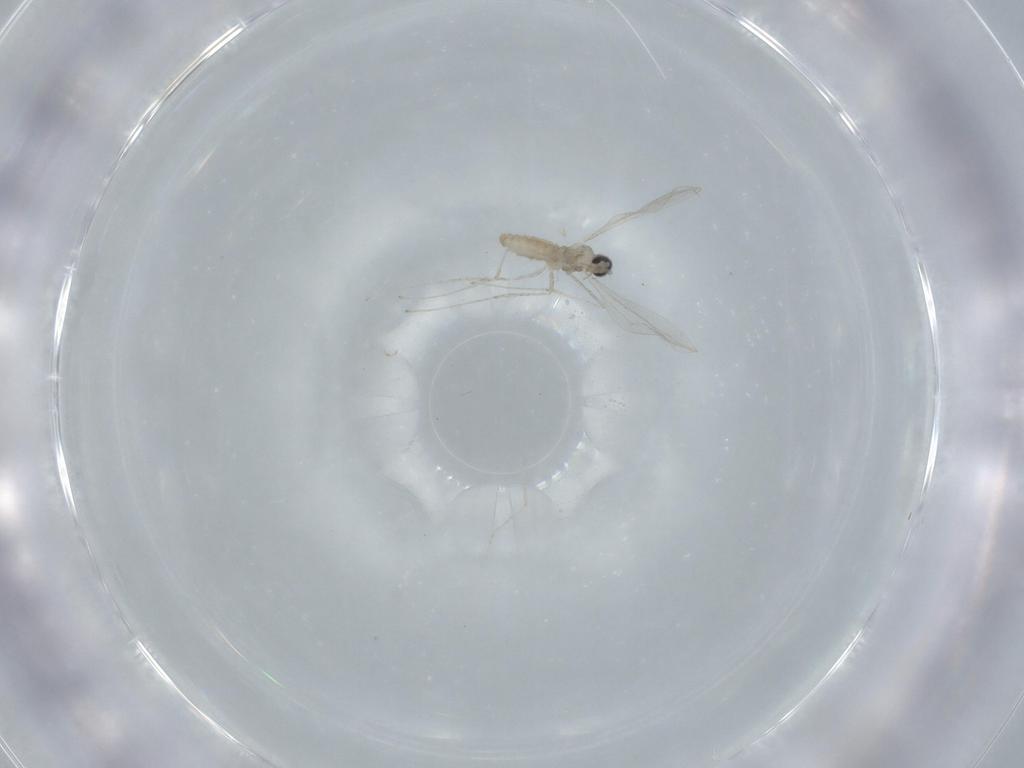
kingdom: Animalia
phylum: Arthropoda
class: Insecta
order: Diptera
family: Cecidomyiidae
